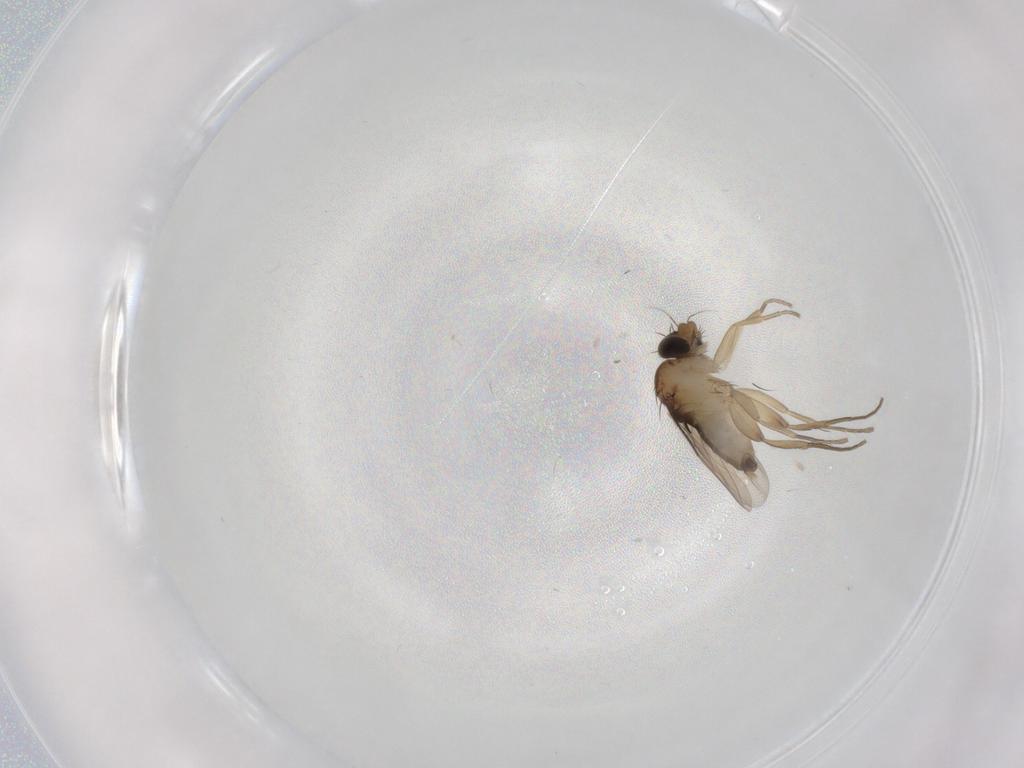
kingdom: Animalia
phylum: Arthropoda
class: Insecta
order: Diptera
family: Phoridae
